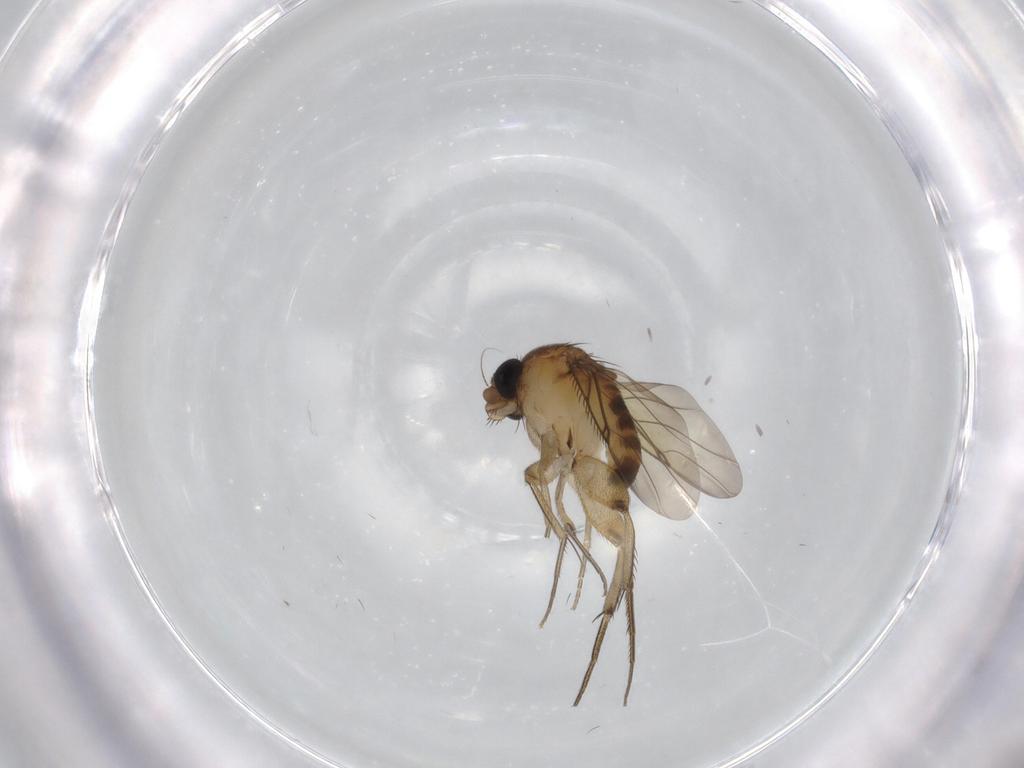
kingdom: Animalia
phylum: Arthropoda
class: Insecta
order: Diptera
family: Phoridae
